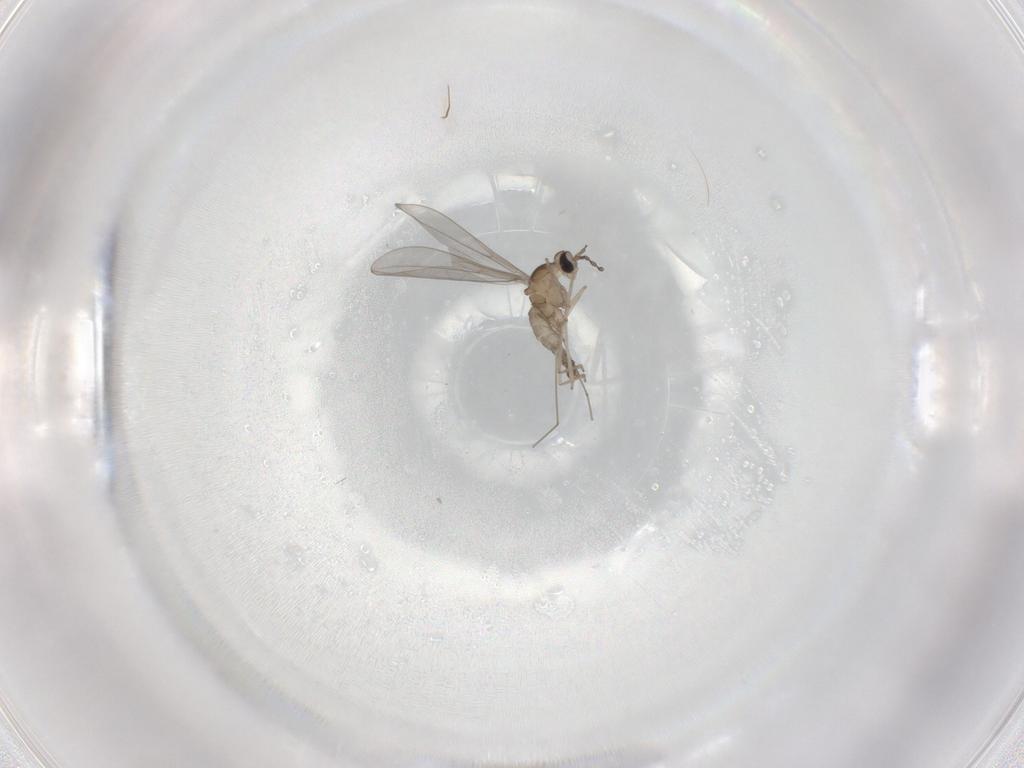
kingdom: Animalia
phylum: Arthropoda
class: Insecta
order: Diptera
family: Cecidomyiidae
